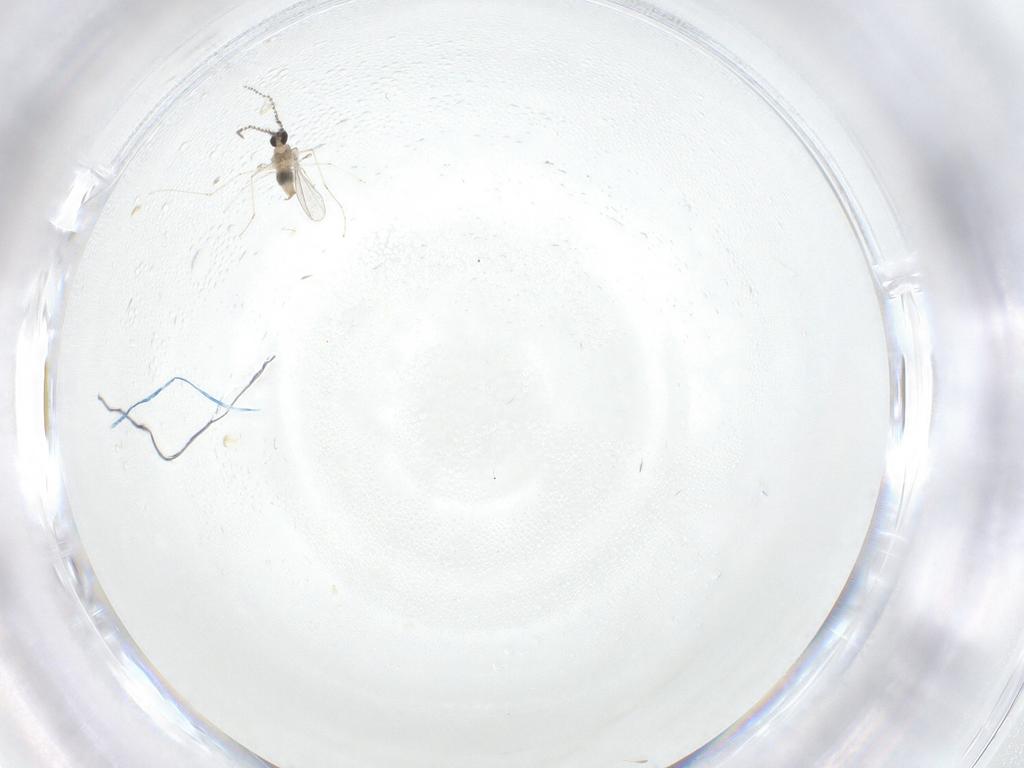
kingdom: Animalia
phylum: Arthropoda
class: Insecta
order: Diptera
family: Cecidomyiidae
